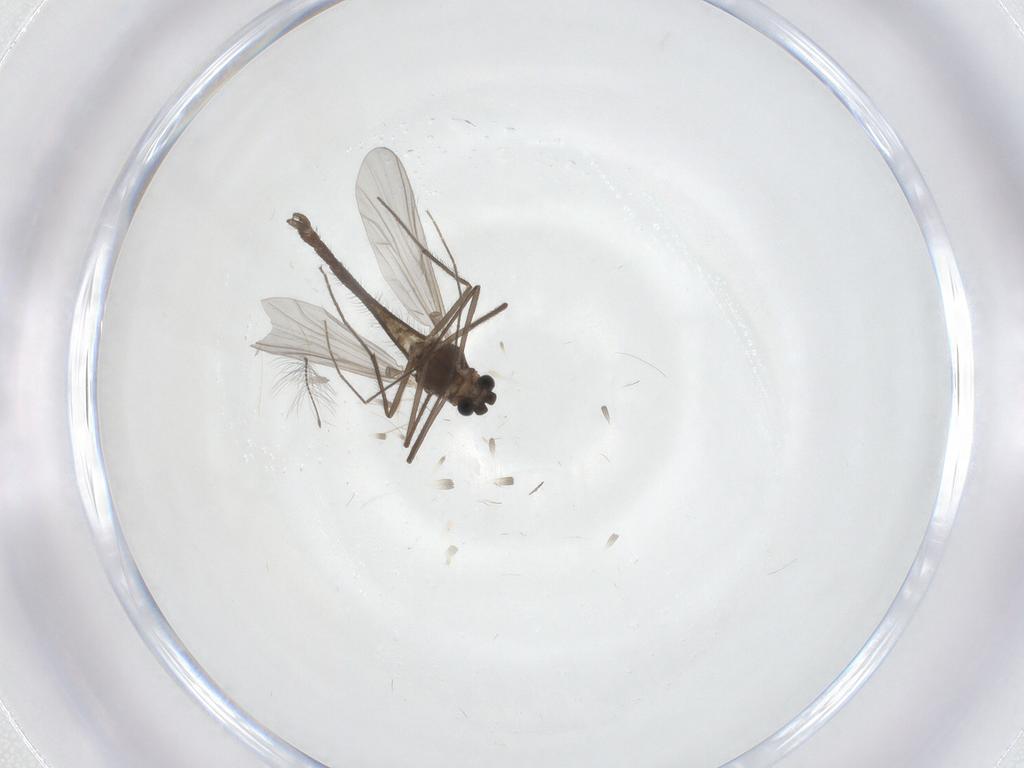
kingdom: Animalia
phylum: Arthropoda
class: Insecta
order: Diptera
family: Chironomidae
